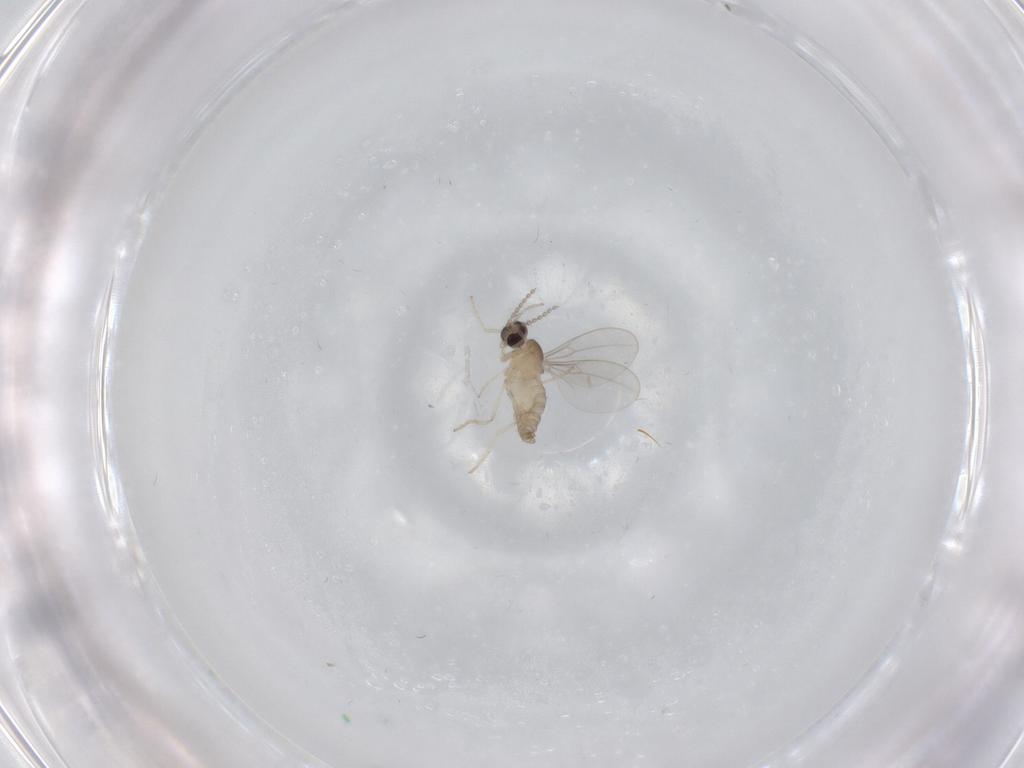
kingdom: Animalia
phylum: Arthropoda
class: Insecta
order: Diptera
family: Cecidomyiidae
